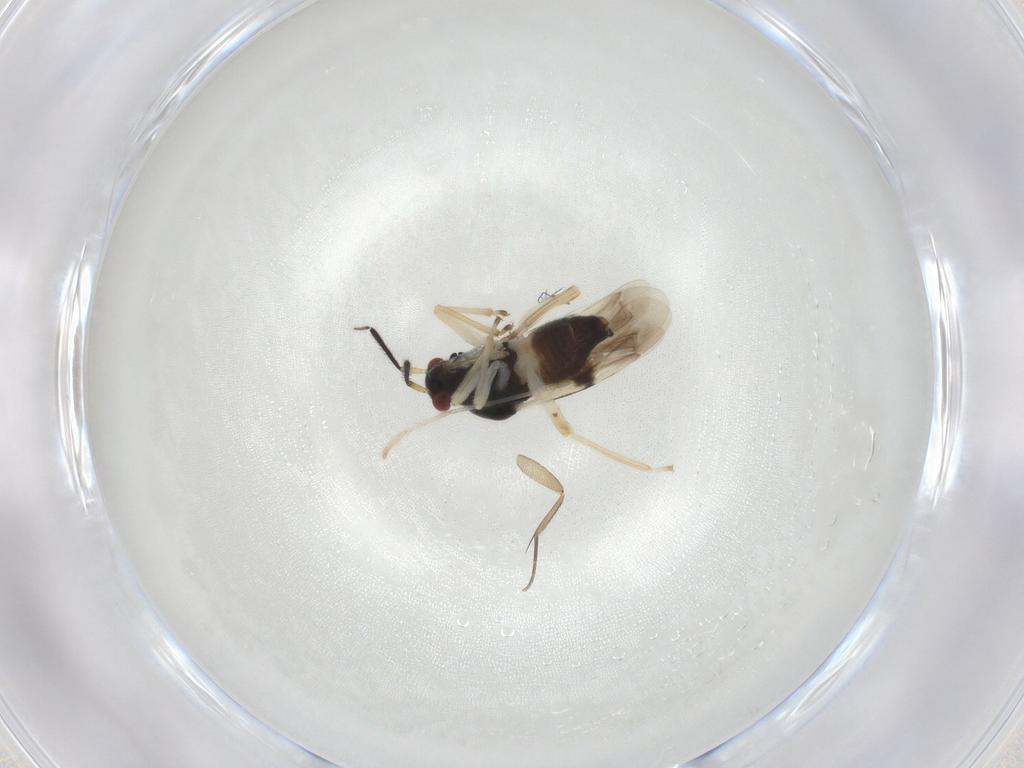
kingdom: Animalia
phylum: Arthropoda
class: Insecta
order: Hemiptera
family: Miridae
